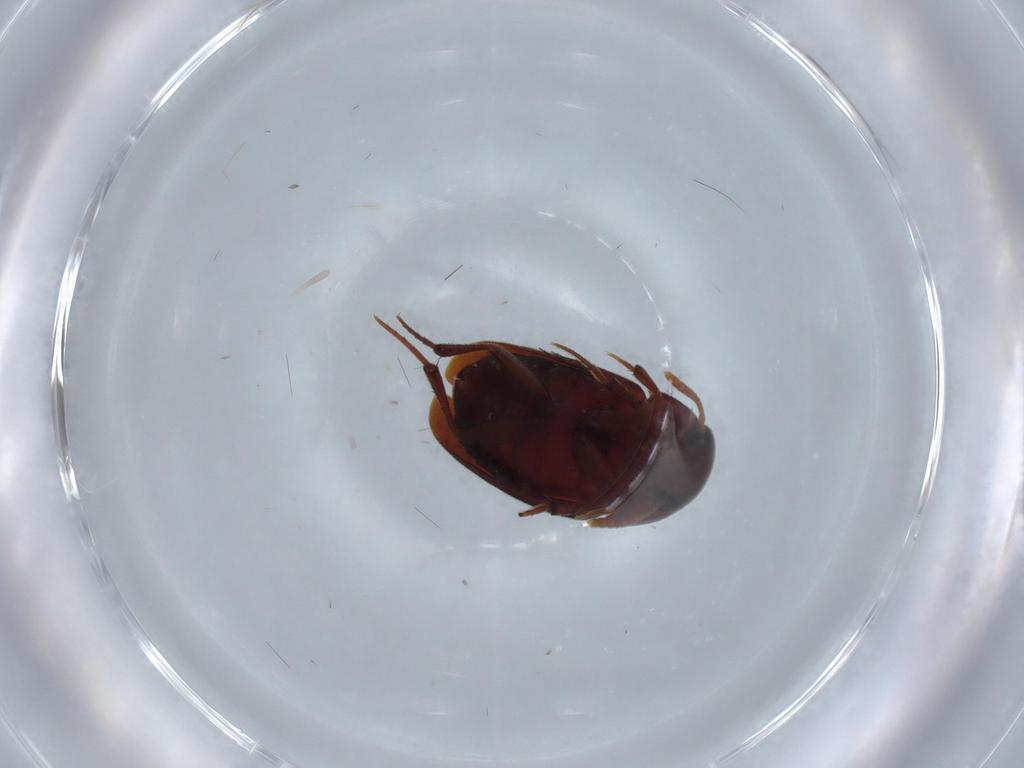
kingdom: Animalia
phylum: Arthropoda
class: Insecta
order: Coleoptera
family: Leiodidae
